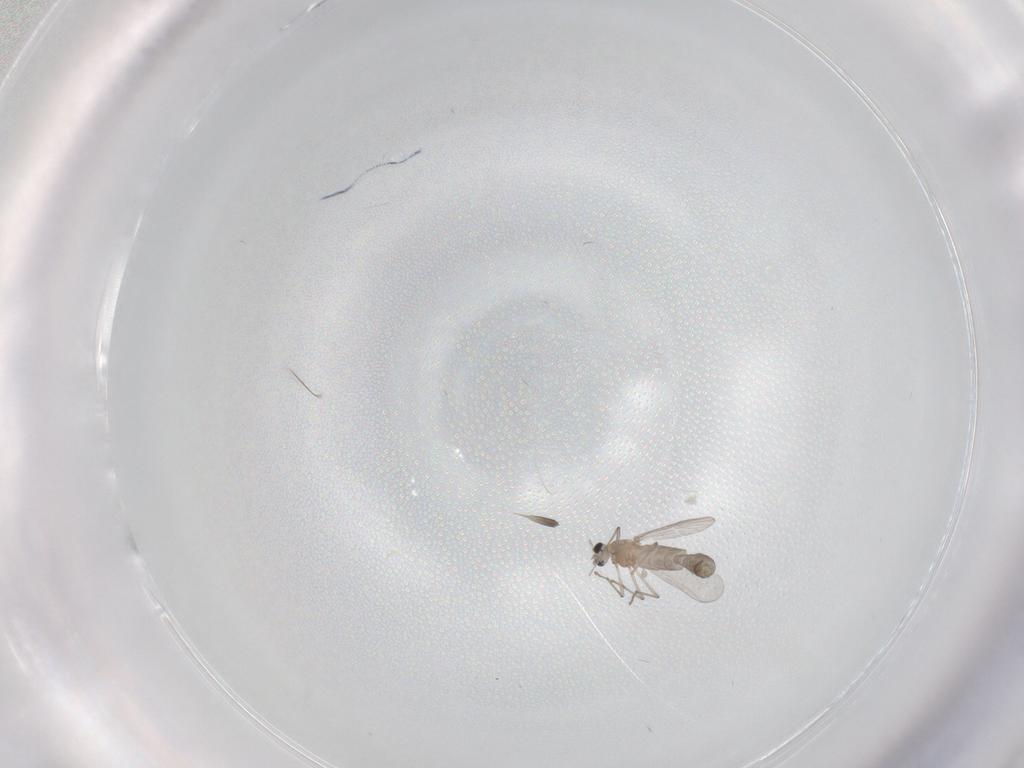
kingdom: Animalia
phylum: Arthropoda
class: Insecta
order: Diptera
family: Chironomidae
